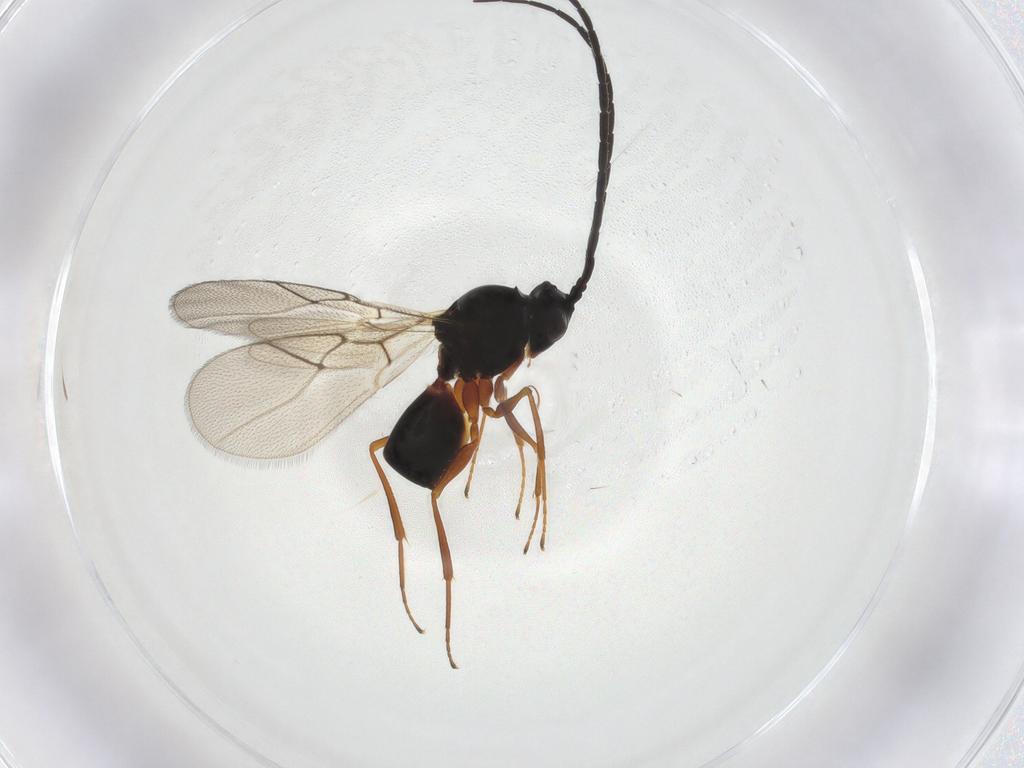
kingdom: Animalia
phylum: Arthropoda
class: Insecta
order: Hymenoptera
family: Figitidae
